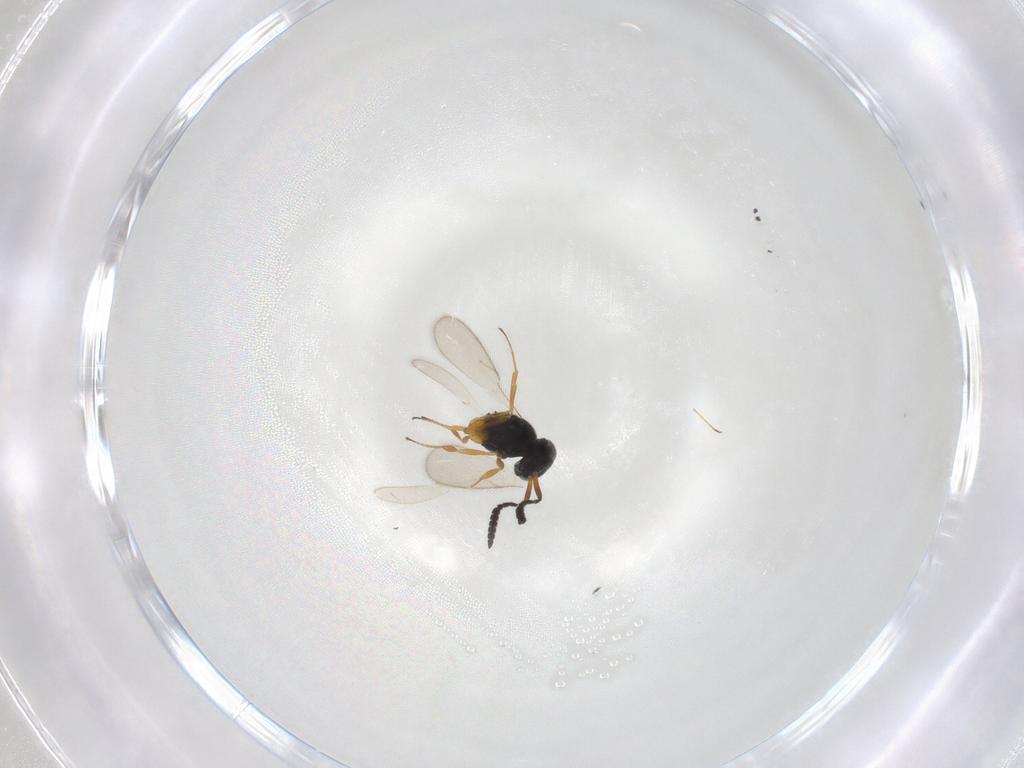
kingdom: Animalia
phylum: Arthropoda
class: Insecta
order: Hymenoptera
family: Scelionidae
